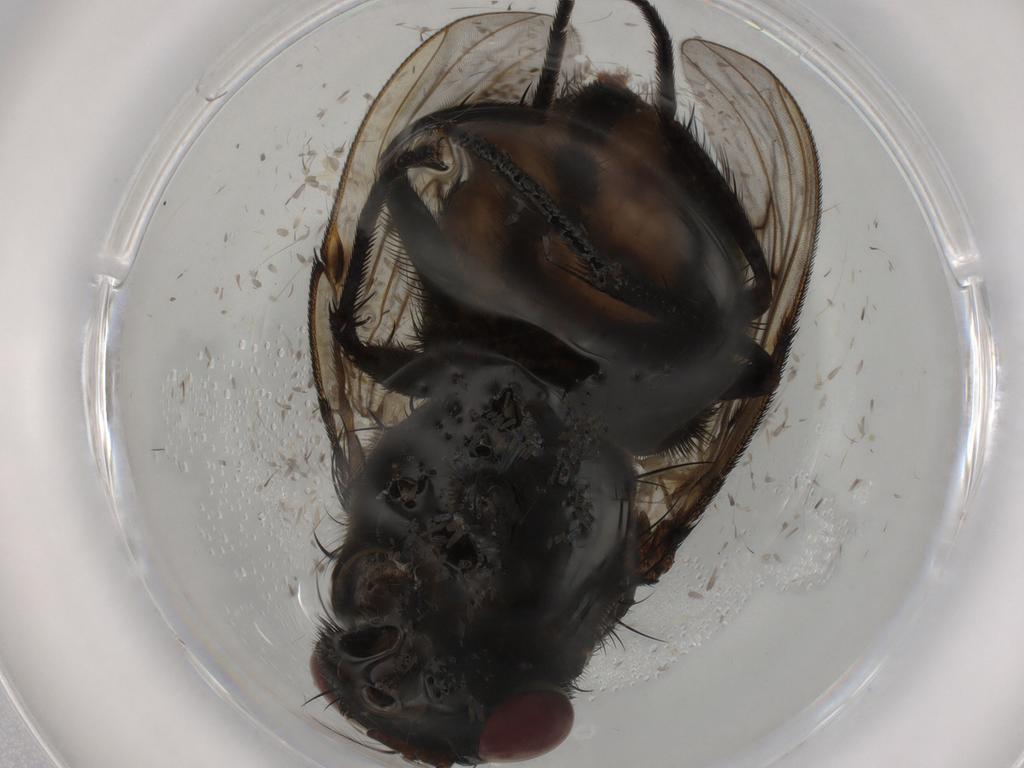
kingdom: Animalia
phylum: Arthropoda
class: Insecta
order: Diptera
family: Muscidae
